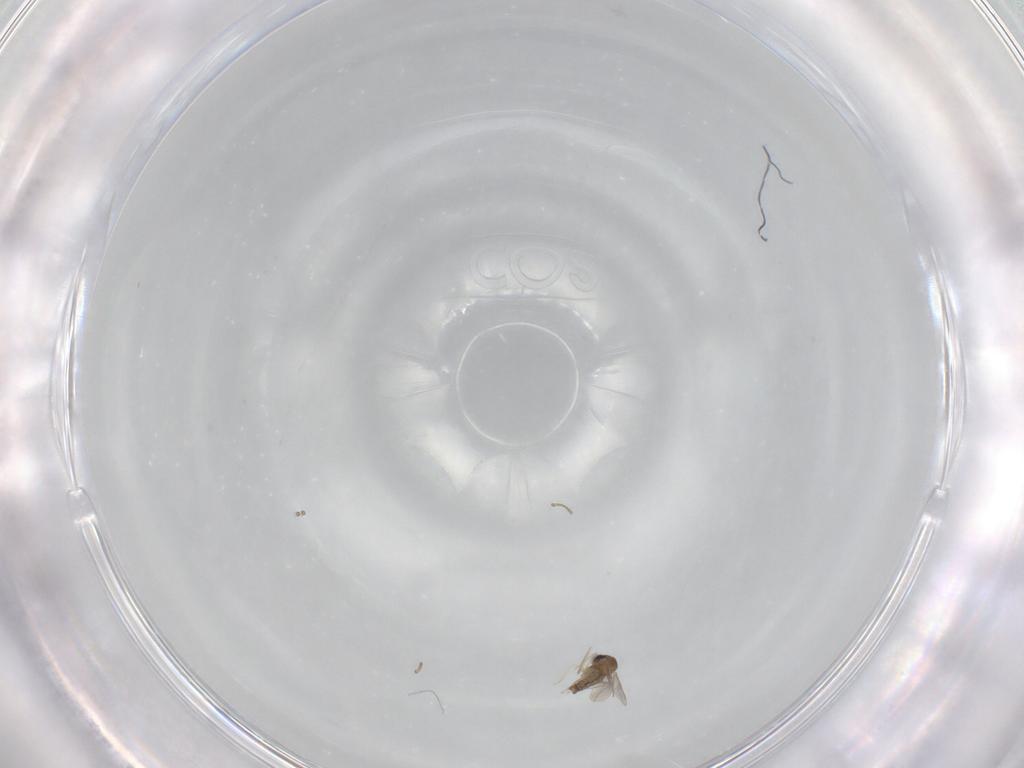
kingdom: Animalia
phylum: Arthropoda
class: Insecta
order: Diptera
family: Cecidomyiidae
